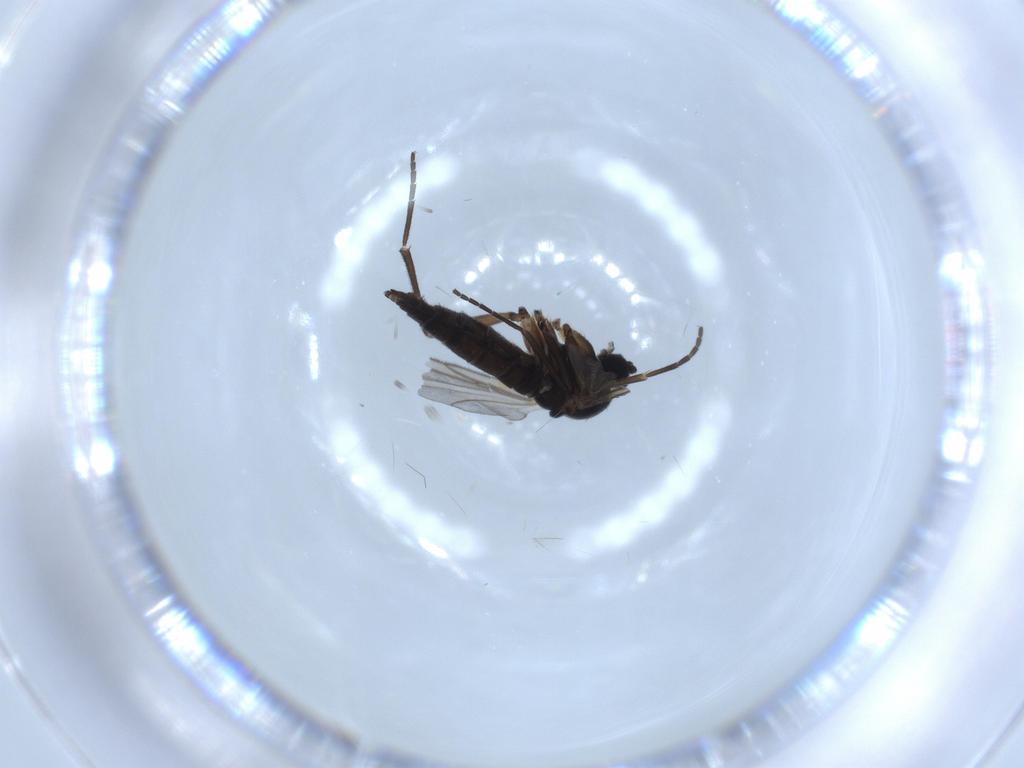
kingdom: Animalia
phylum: Arthropoda
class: Insecta
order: Diptera
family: Sciaridae
